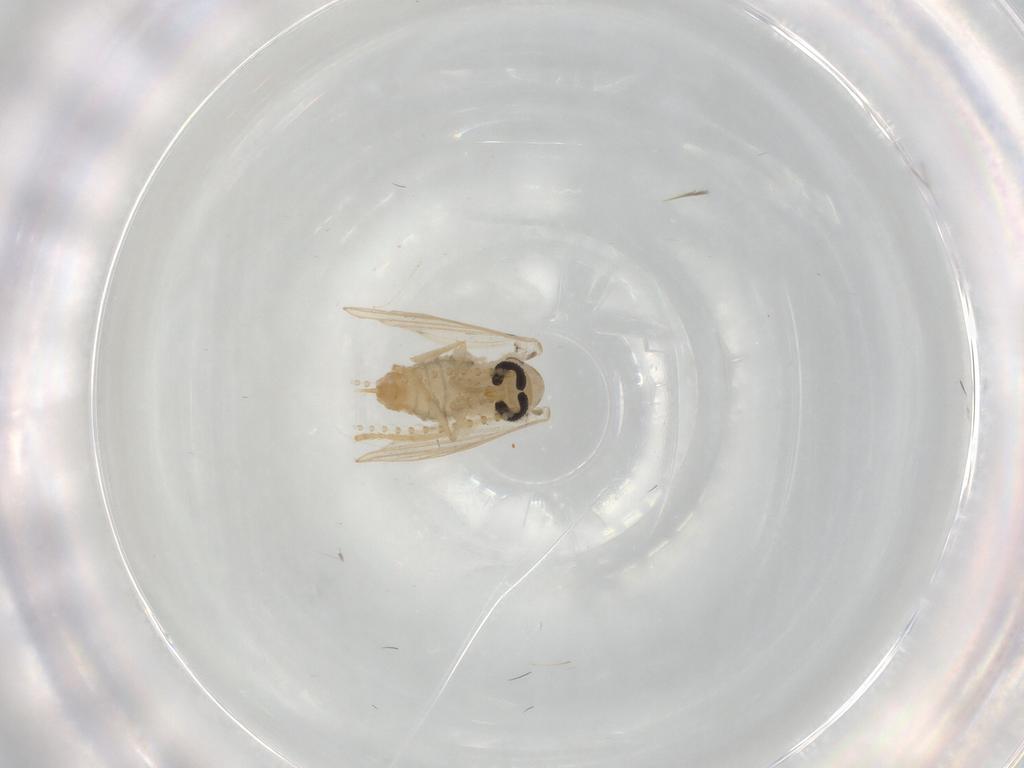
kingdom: Animalia
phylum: Arthropoda
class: Insecta
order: Diptera
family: Psychodidae
